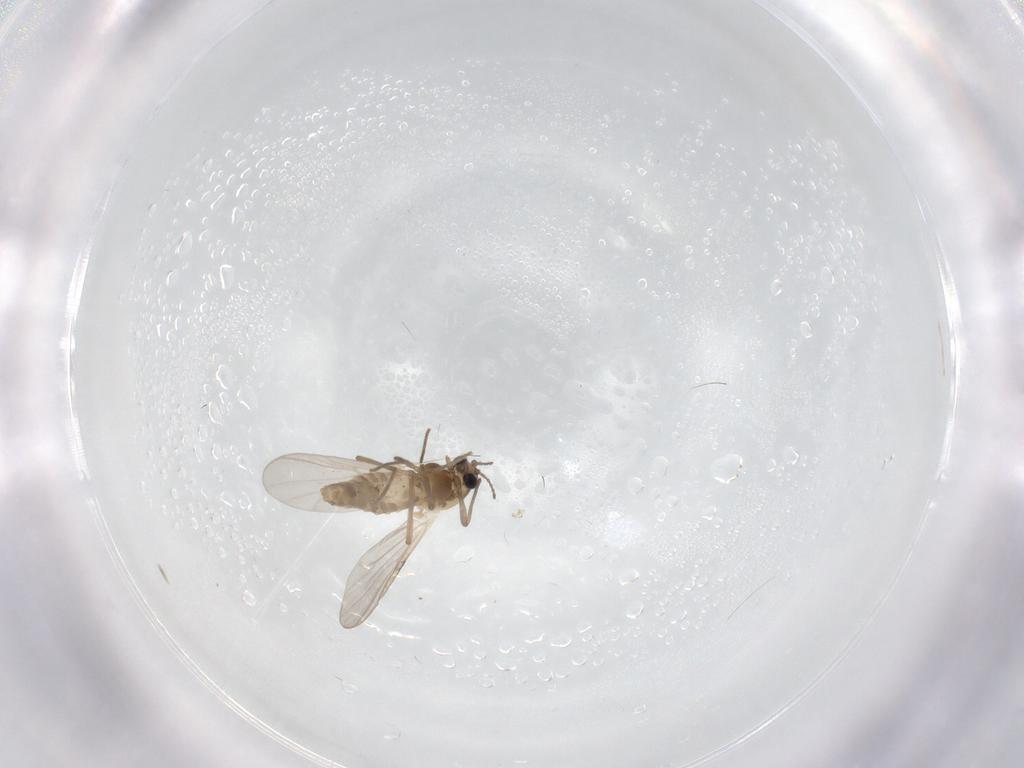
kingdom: Animalia
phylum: Arthropoda
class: Insecta
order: Diptera
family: Chironomidae
